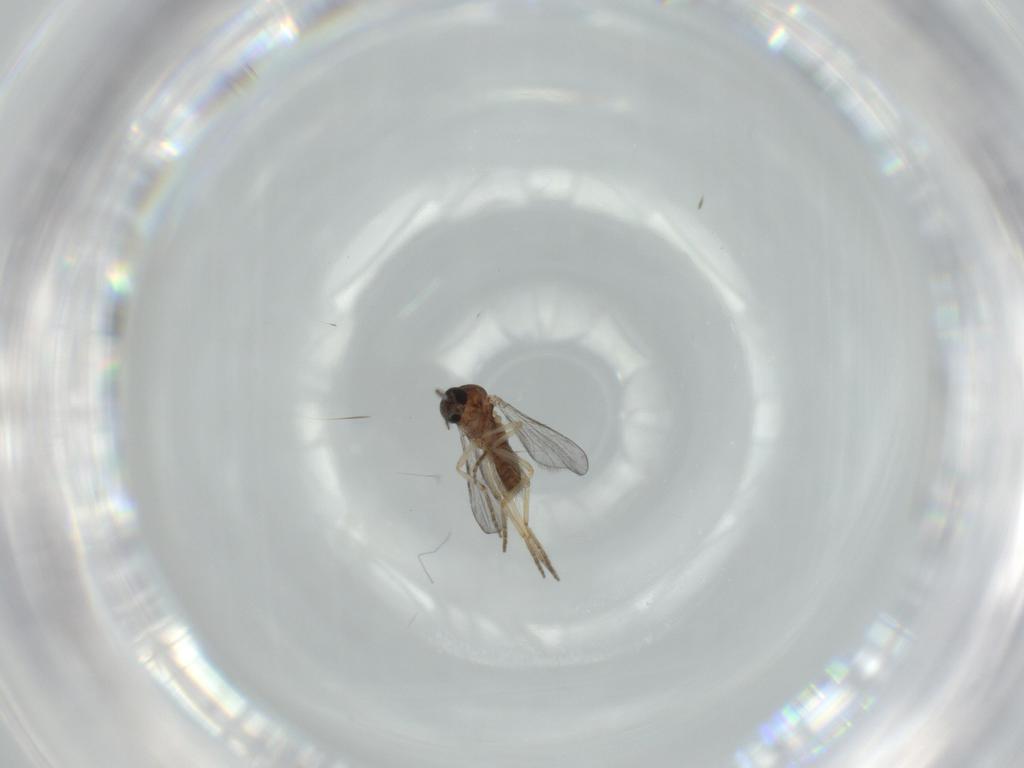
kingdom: Animalia
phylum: Arthropoda
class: Insecta
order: Diptera
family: Ceratopogonidae
